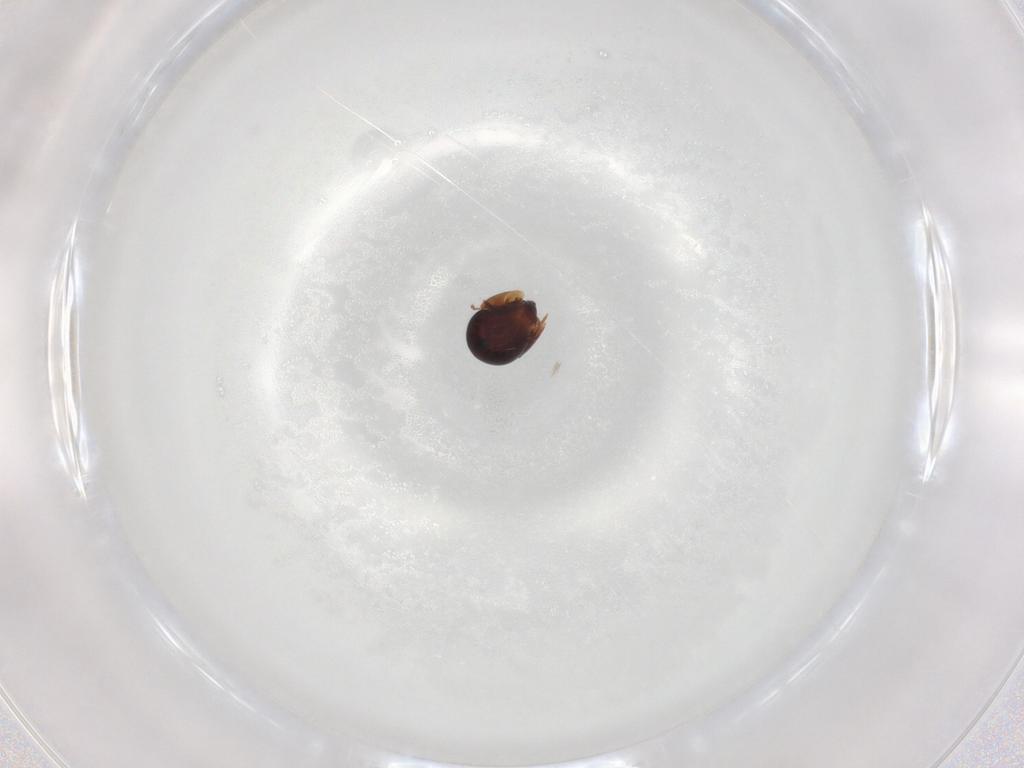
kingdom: Animalia
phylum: Arthropoda
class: Arachnida
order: Sarcoptiformes
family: Ceratozetidae
